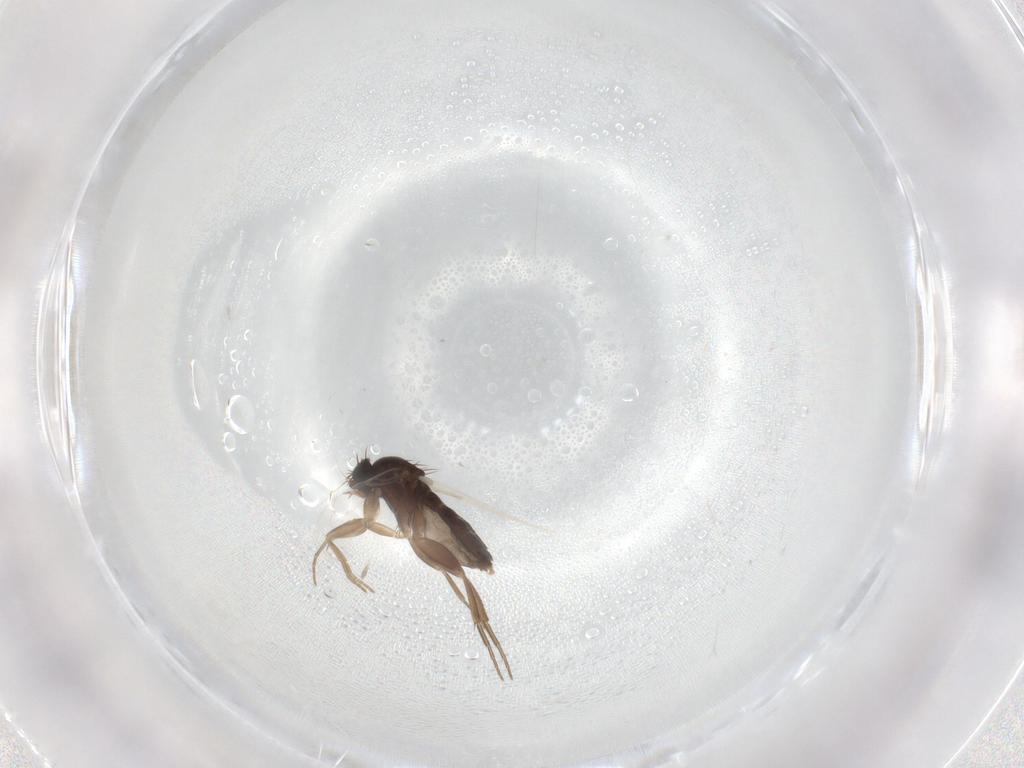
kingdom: Animalia
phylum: Arthropoda
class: Insecta
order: Diptera
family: Phoridae
